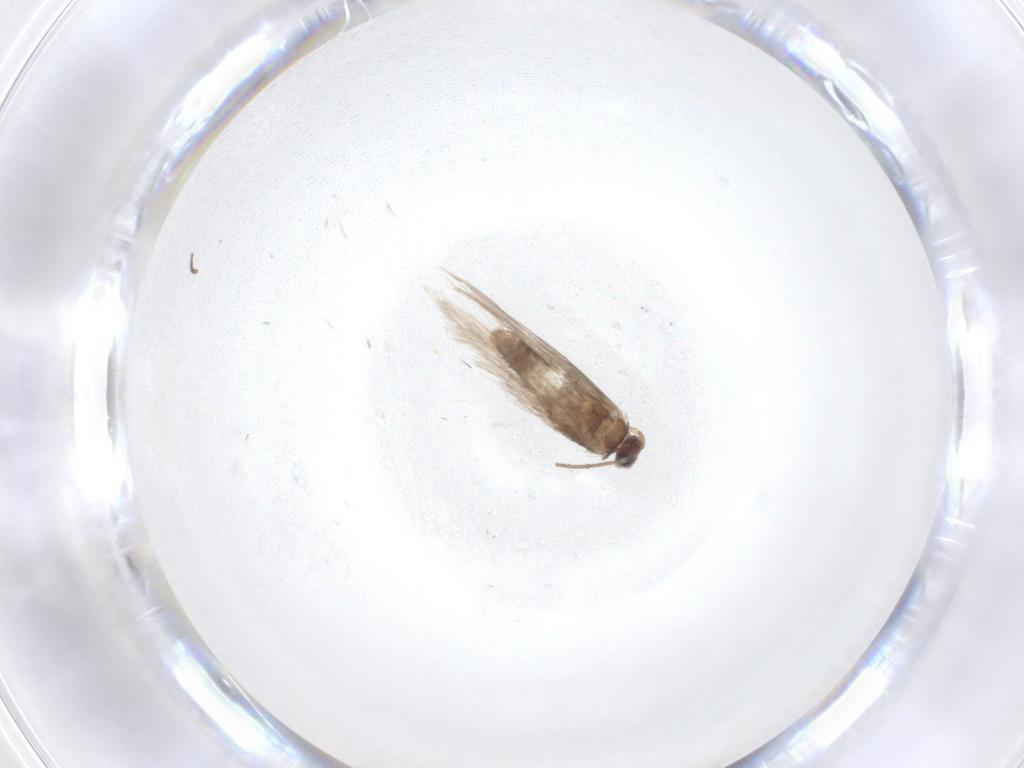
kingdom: Animalia
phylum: Arthropoda
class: Insecta
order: Lepidoptera
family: Nepticulidae
